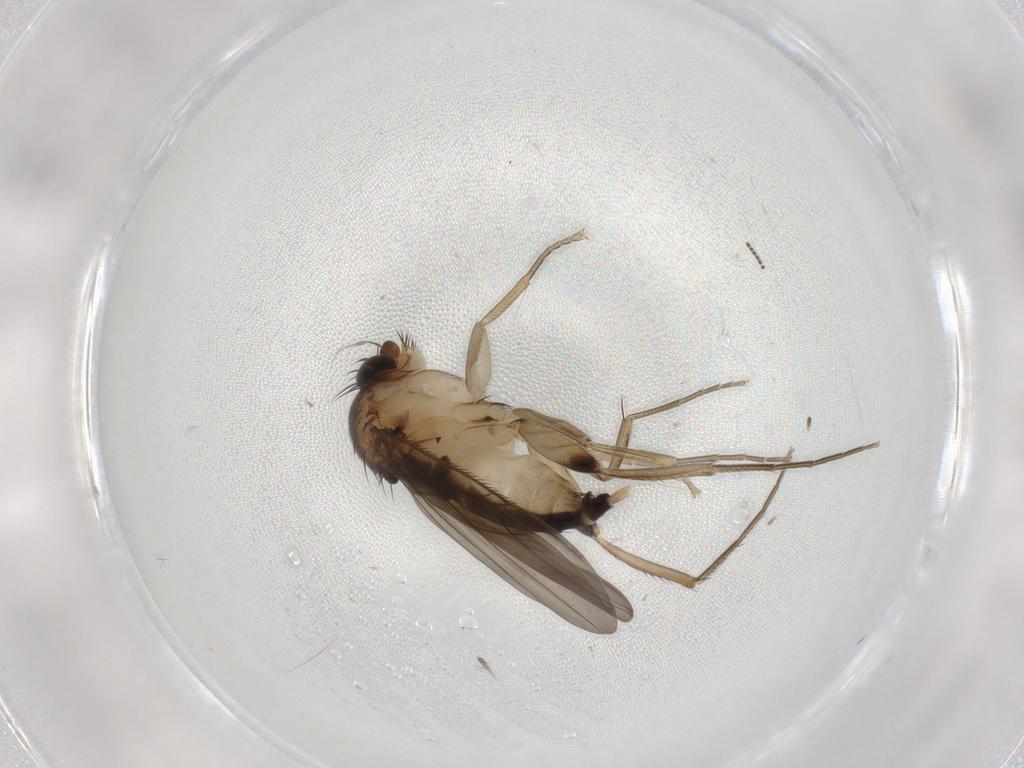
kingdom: Animalia
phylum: Arthropoda
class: Insecta
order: Diptera
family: Phoridae
